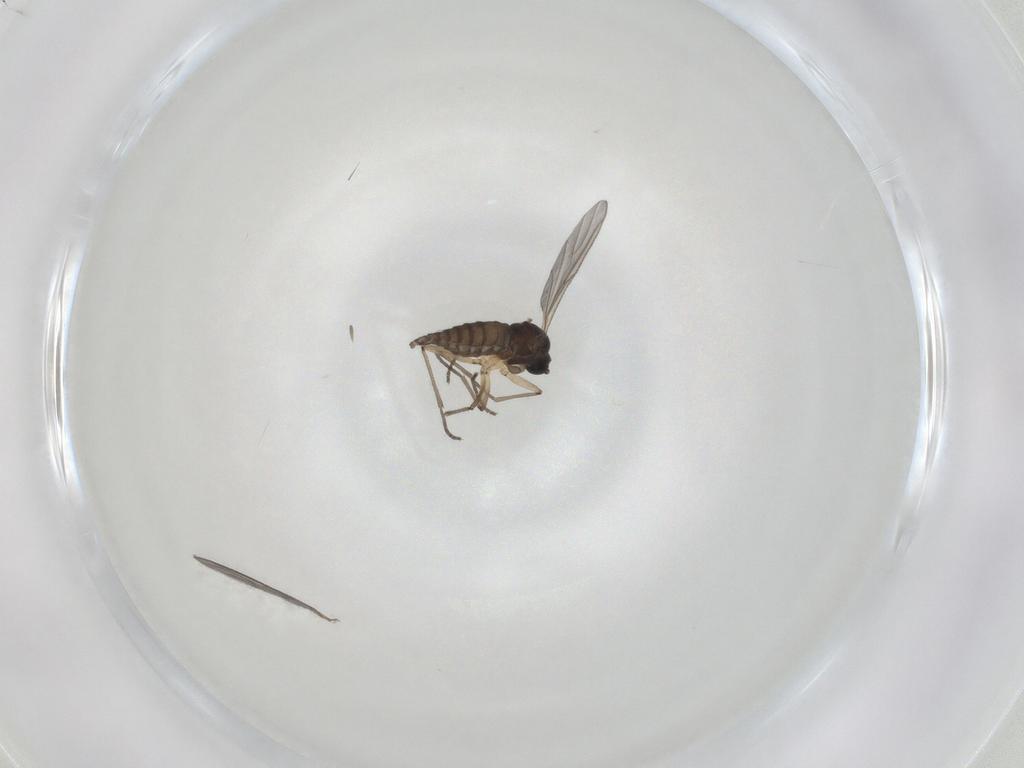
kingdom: Animalia
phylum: Arthropoda
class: Insecta
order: Diptera
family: Sciaridae
